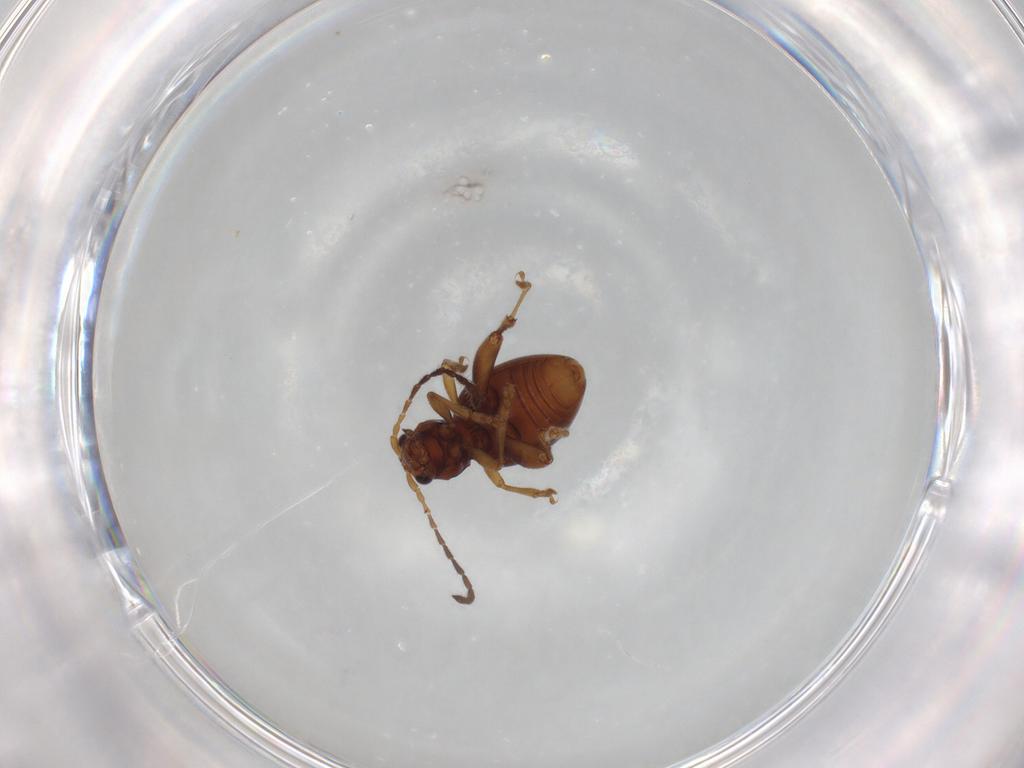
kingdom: Animalia
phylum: Arthropoda
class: Insecta
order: Coleoptera
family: Chrysomelidae
